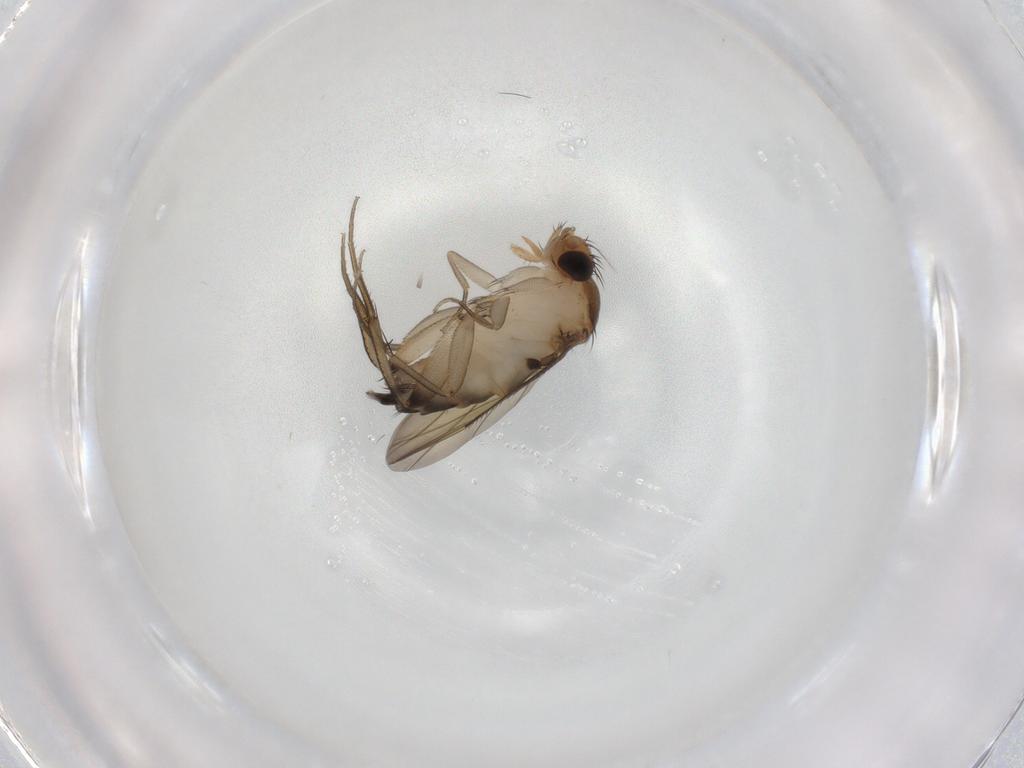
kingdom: Animalia
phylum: Arthropoda
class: Insecta
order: Diptera
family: Phoridae
